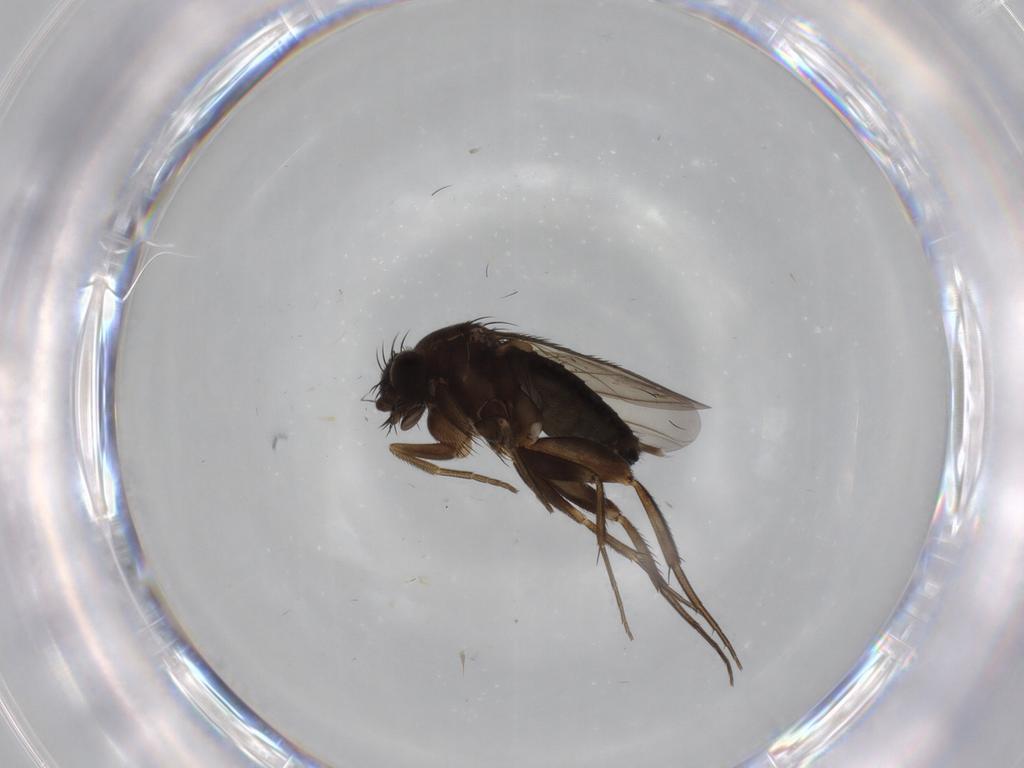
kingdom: Animalia
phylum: Arthropoda
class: Insecta
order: Diptera
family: Phoridae
